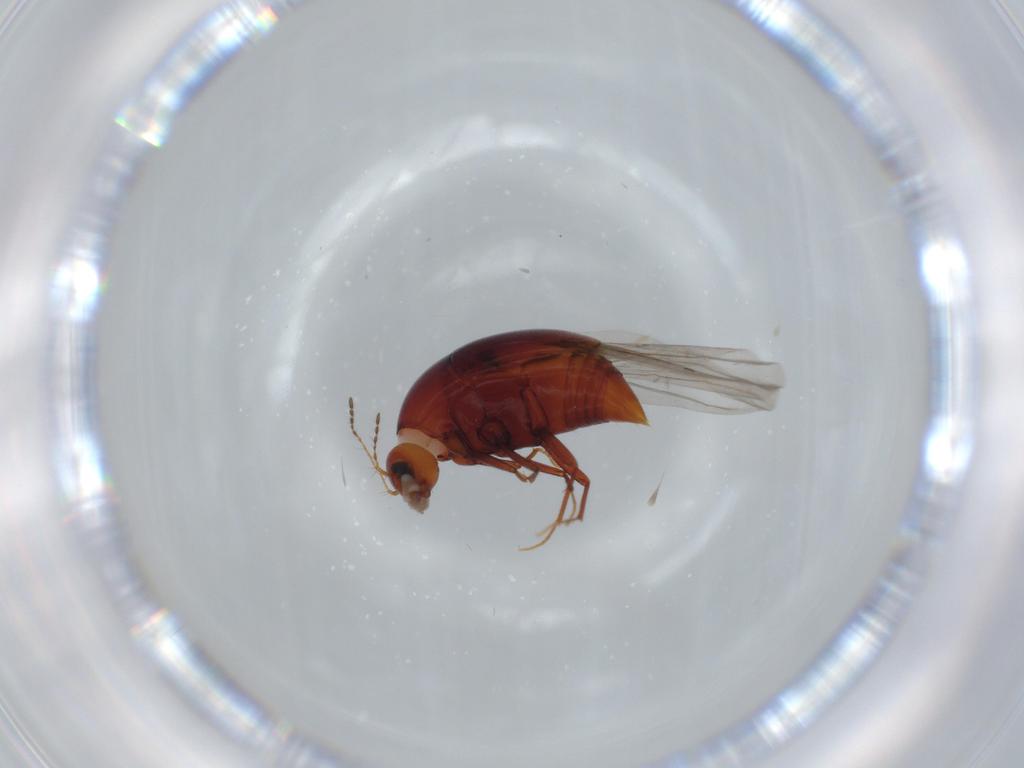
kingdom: Animalia
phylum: Arthropoda
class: Insecta
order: Coleoptera
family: Staphylinidae
